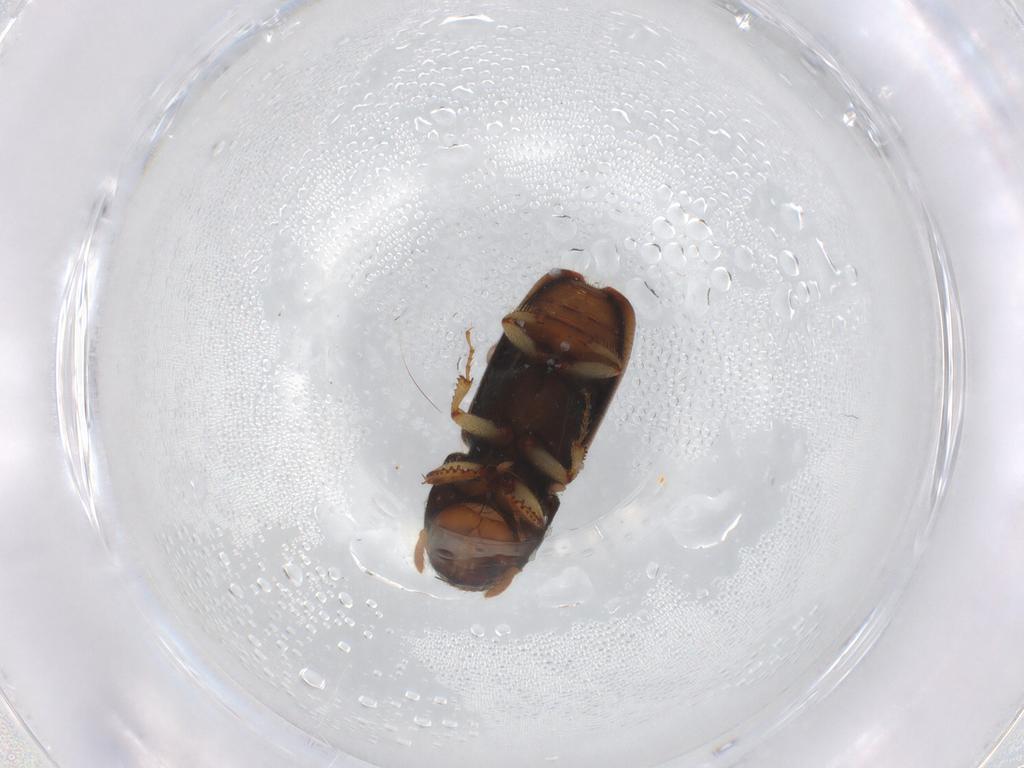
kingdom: Animalia
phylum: Arthropoda
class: Insecta
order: Coleoptera
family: Curculionidae
